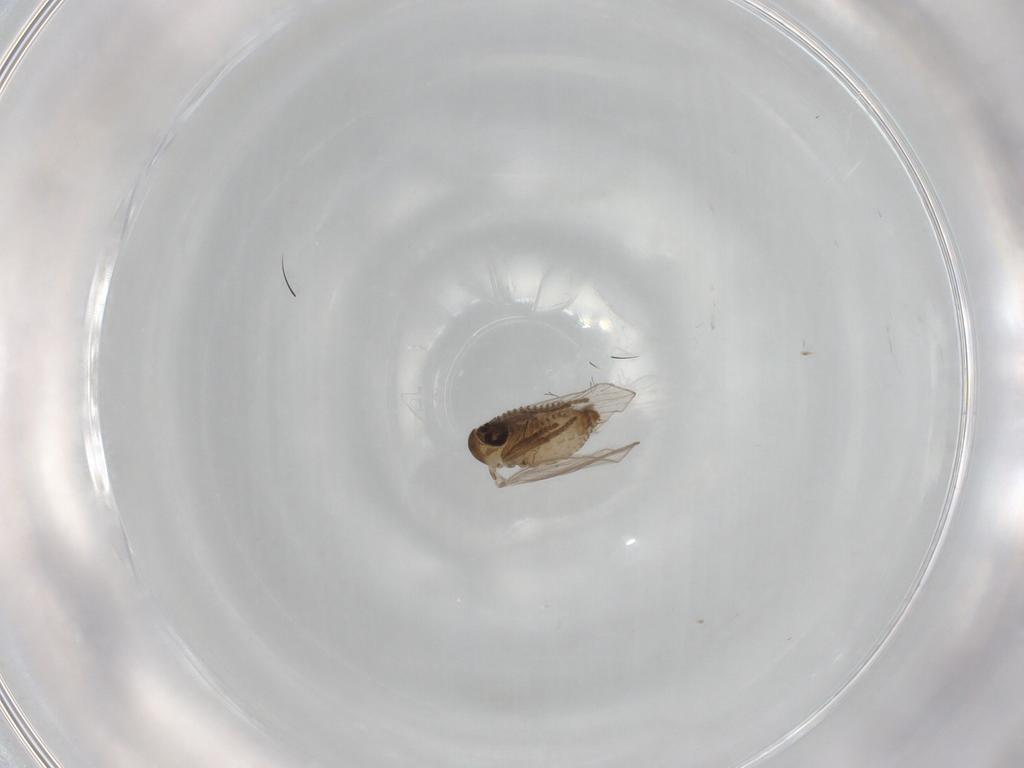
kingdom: Animalia
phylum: Arthropoda
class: Insecta
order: Diptera
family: Psychodidae
